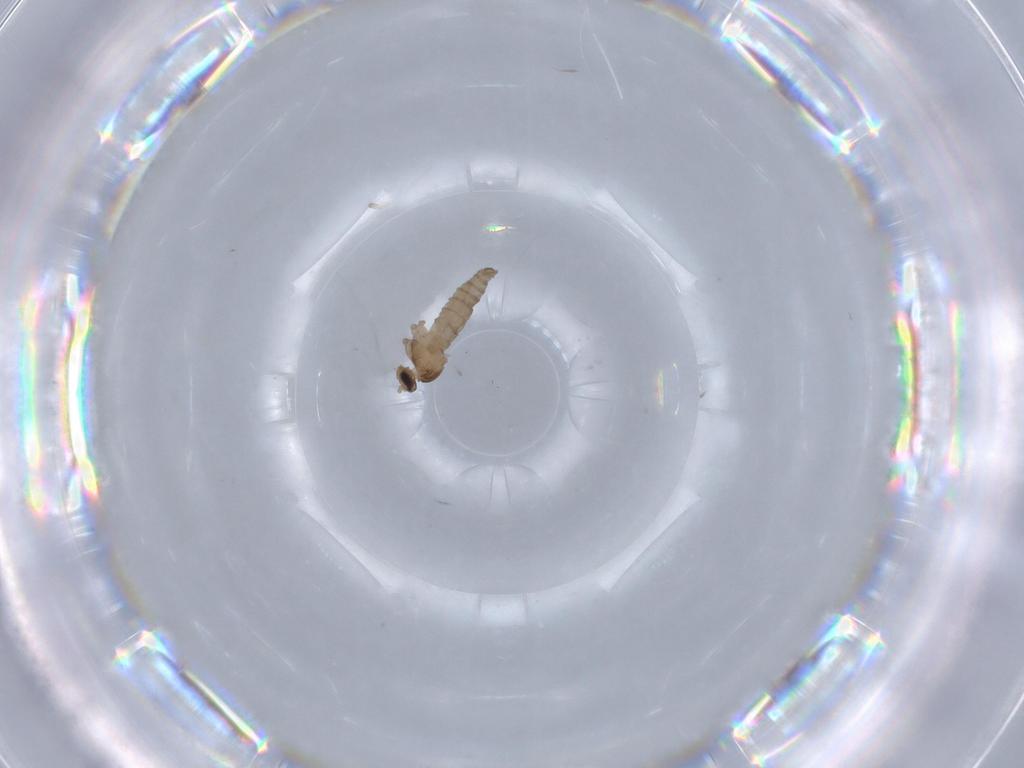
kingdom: Animalia
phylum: Arthropoda
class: Insecta
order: Diptera
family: Cecidomyiidae
